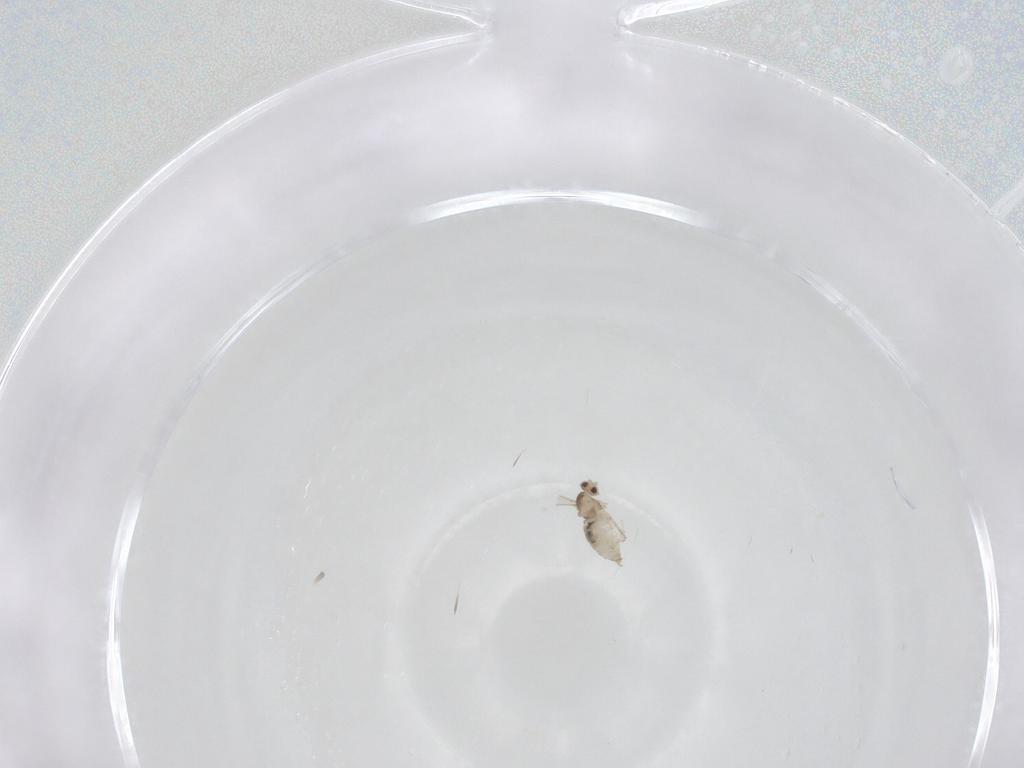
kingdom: Animalia
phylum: Arthropoda
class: Insecta
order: Diptera
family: Cecidomyiidae
